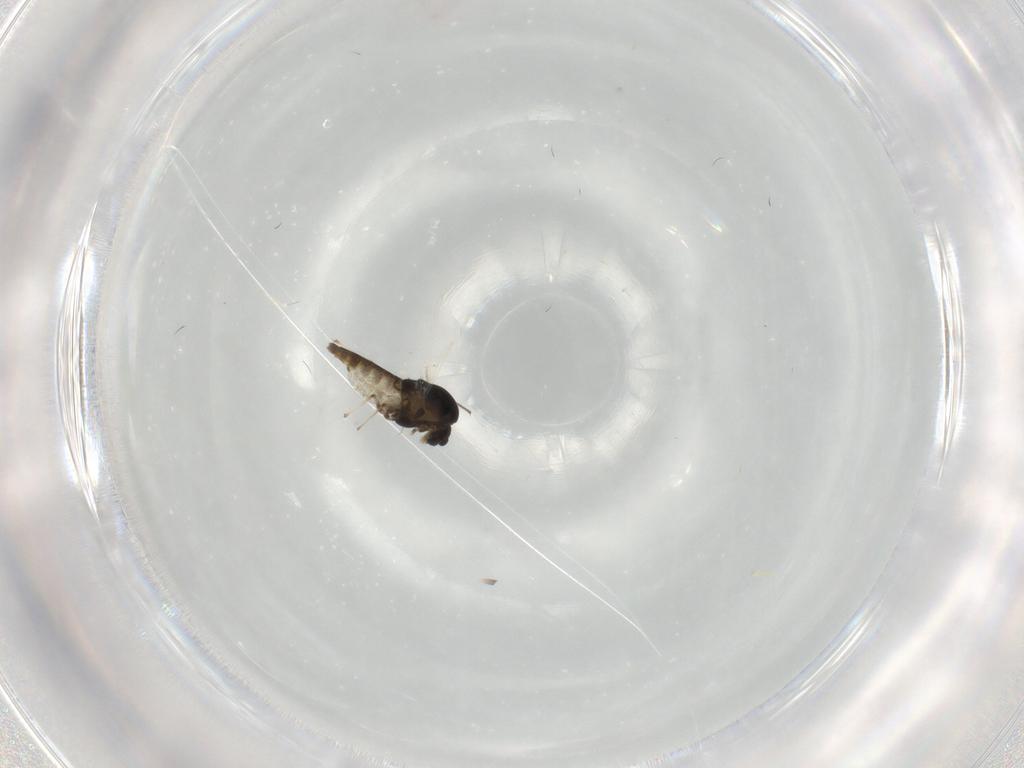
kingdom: Animalia
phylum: Arthropoda
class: Insecta
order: Diptera
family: Chironomidae
